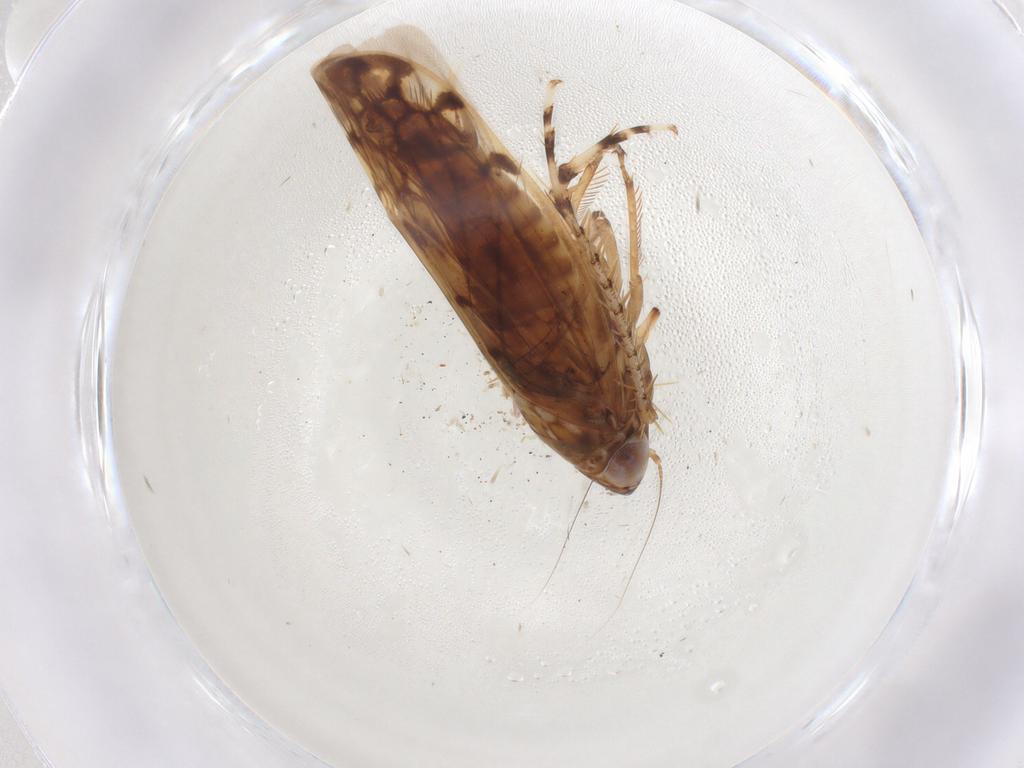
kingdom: Animalia
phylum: Arthropoda
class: Insecta
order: Hemiptera
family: Cicadellidae
